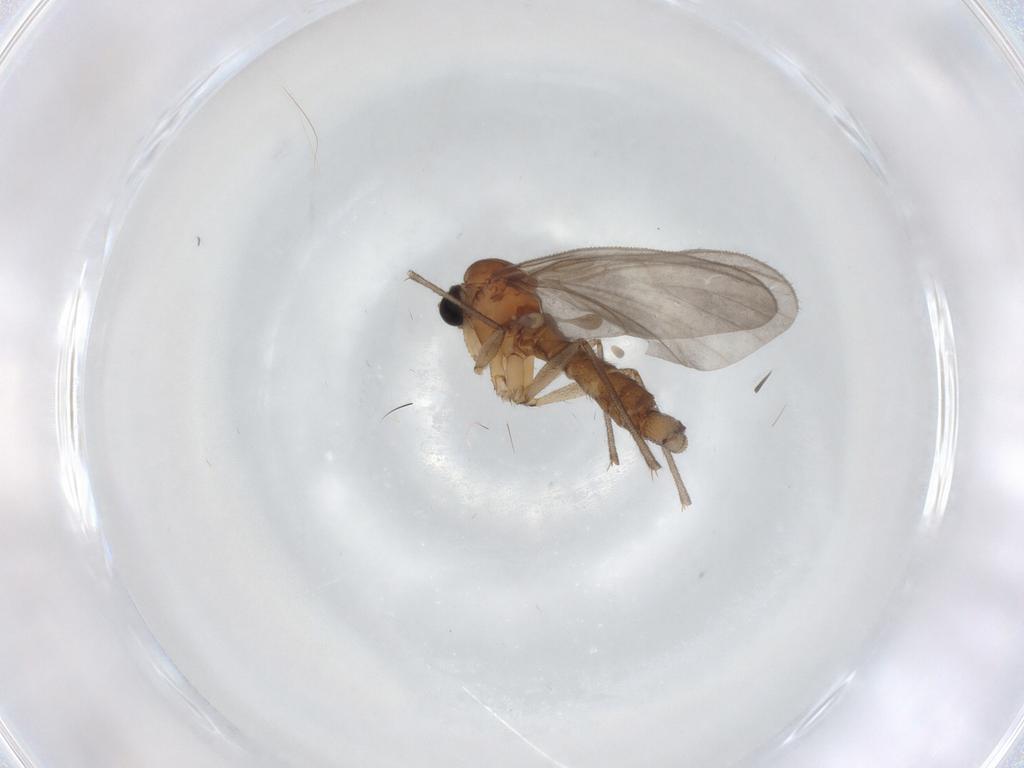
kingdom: Animalia
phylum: Arthropoda
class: Insecta
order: Diptera
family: Sciaridae
